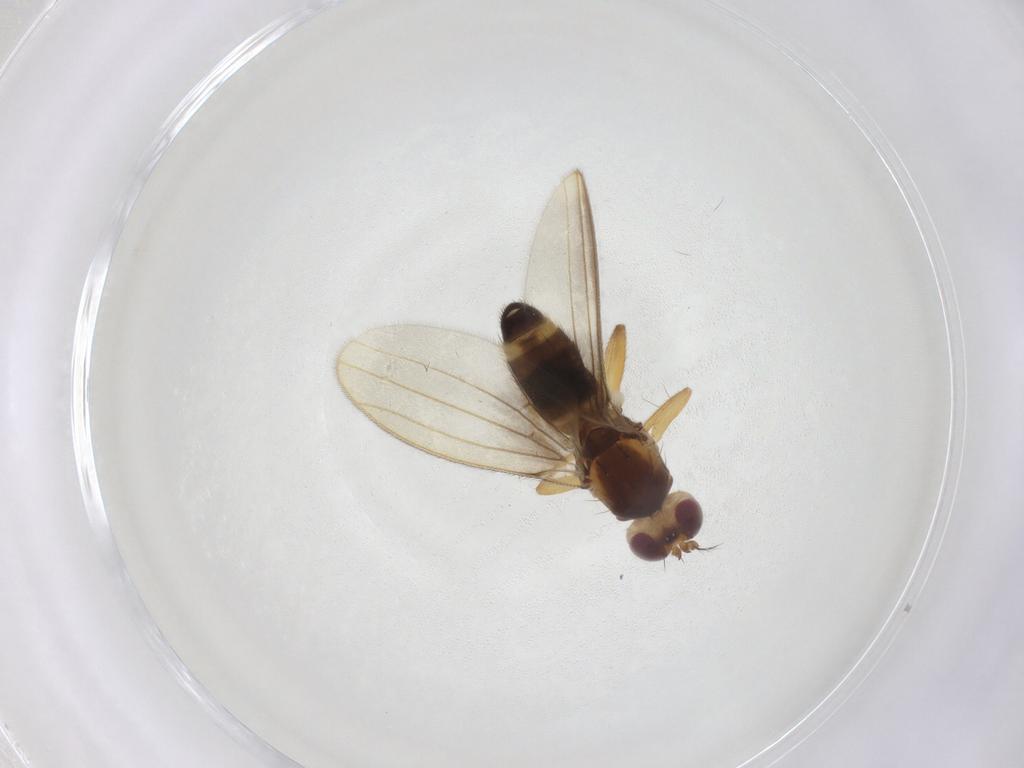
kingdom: Animalia
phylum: Arthropoda
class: Insecta
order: Diptera
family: Periscelididae
